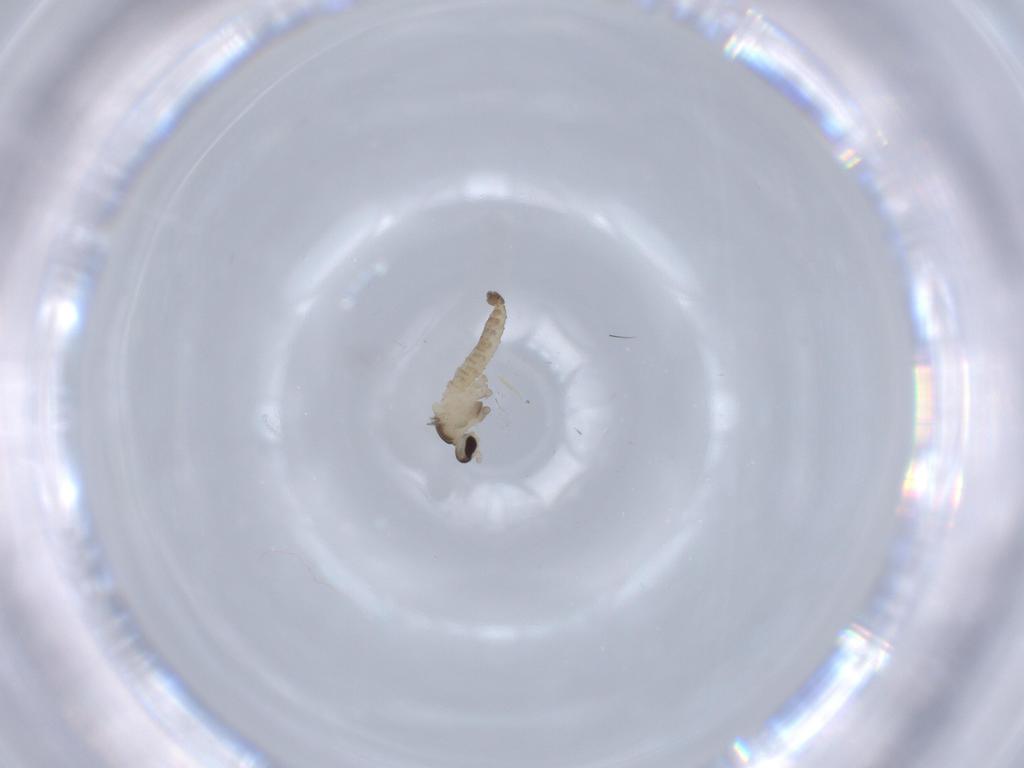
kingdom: Animalia
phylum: Arthropoda
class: Insecta
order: Diptera
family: Cecidomyiidae
